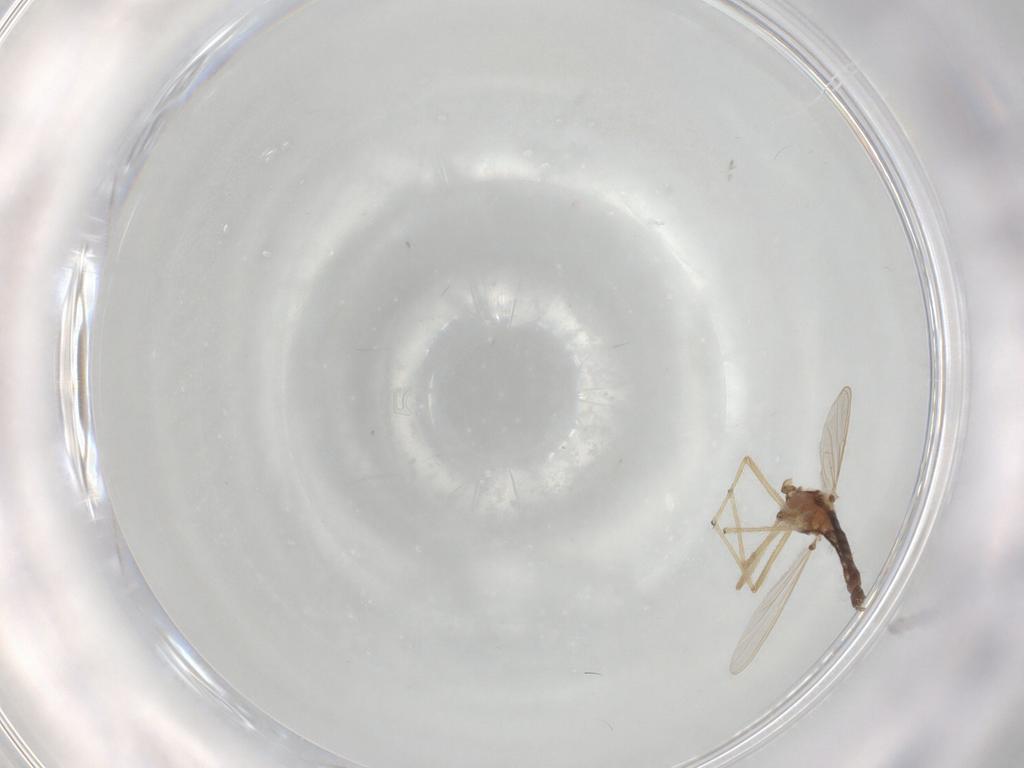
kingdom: Animalia
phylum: Arthropoda
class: Insecta
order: Diptera
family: Chironomidae
